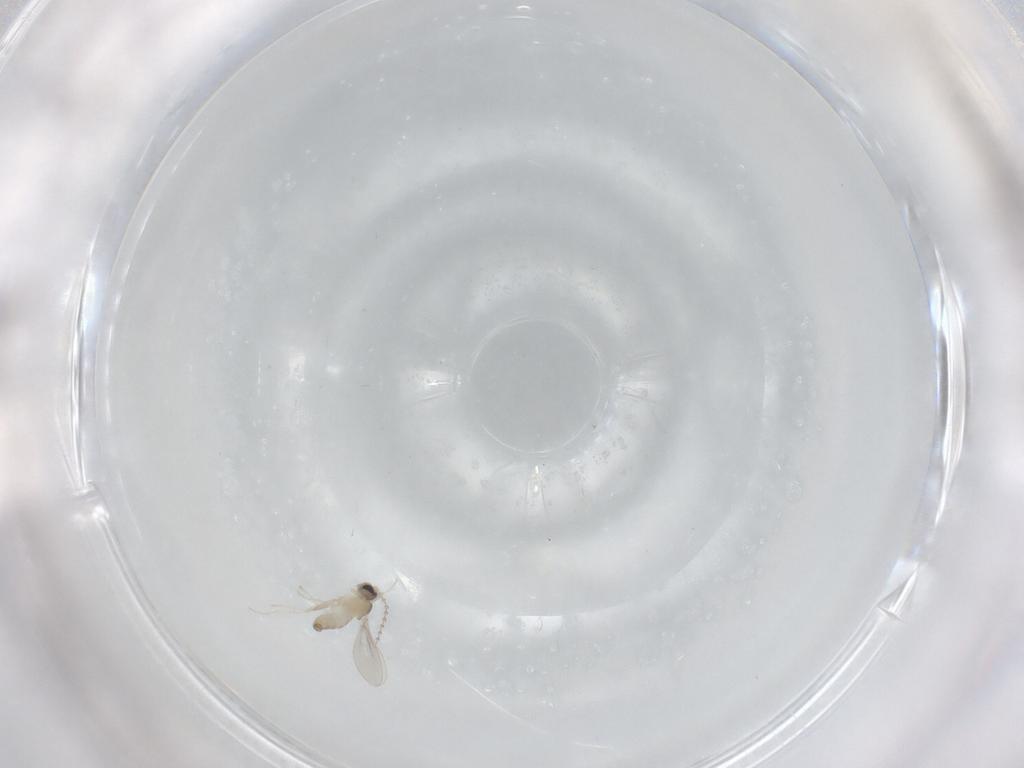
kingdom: Animalia
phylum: Arthropoda
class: Insecta
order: Diptera
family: Cecidomyiidae
